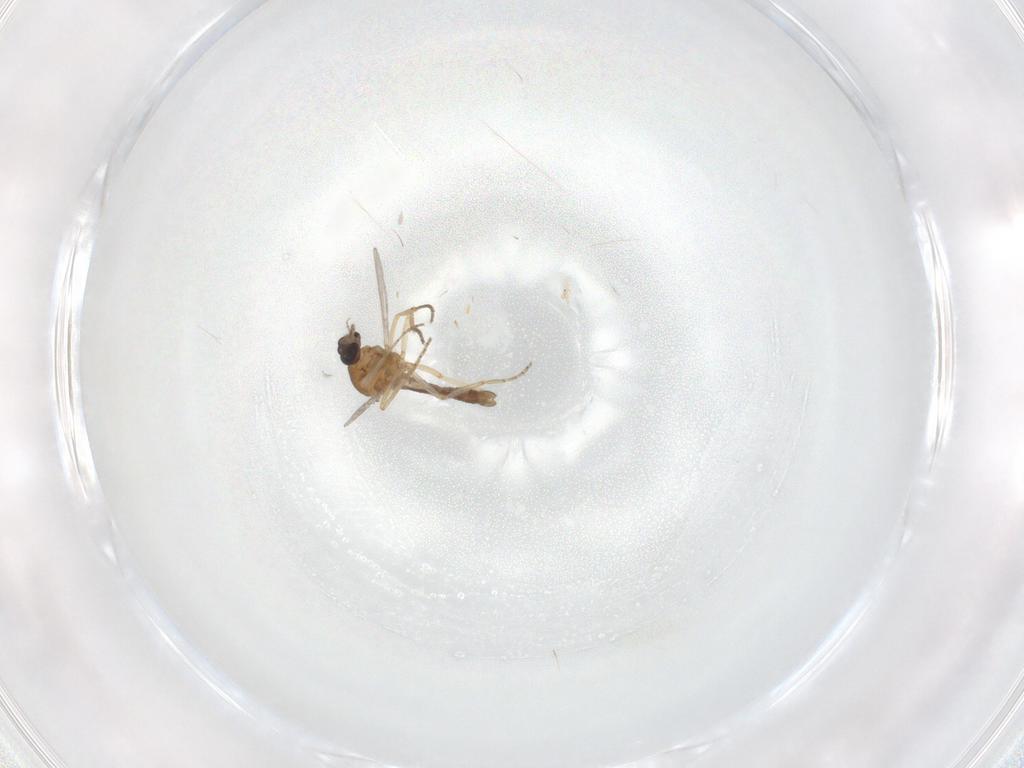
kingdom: Animalia
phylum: Arthropoda
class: Insecta
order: Diptera
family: Ceratopogonidae
